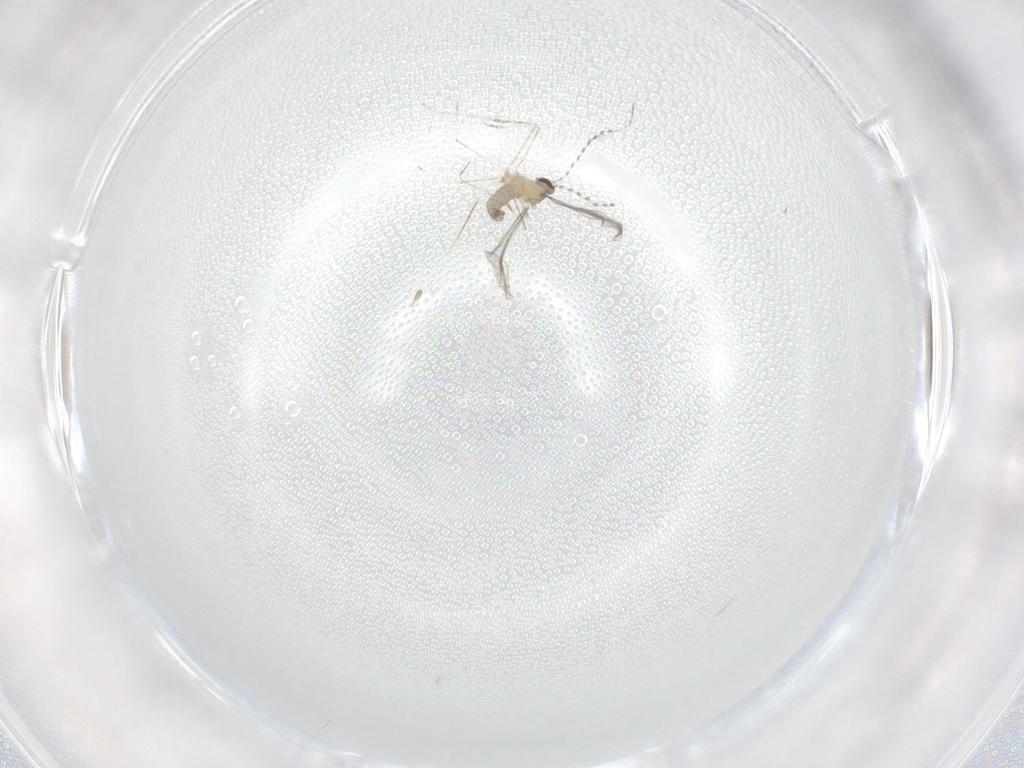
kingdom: Animalia
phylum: Arthropoda
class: Insecta
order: Diptera
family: Cecidomyiidae
